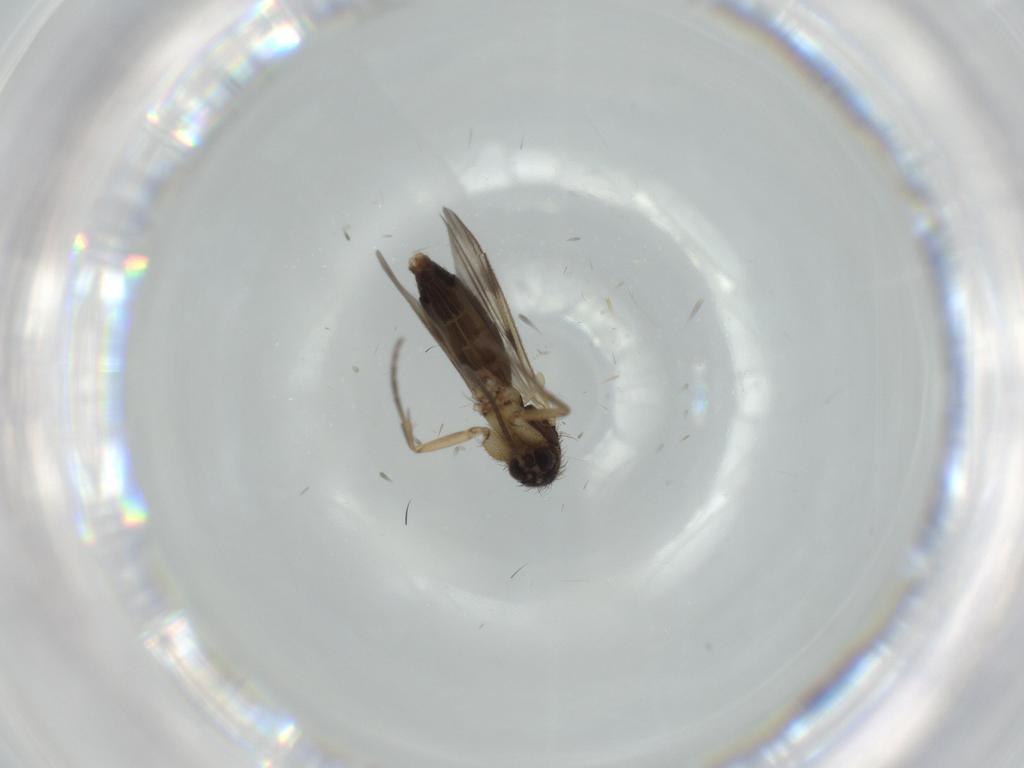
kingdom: Animalia
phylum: Arthropoda
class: Insecta
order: Diptera
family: Mycetophilidae
